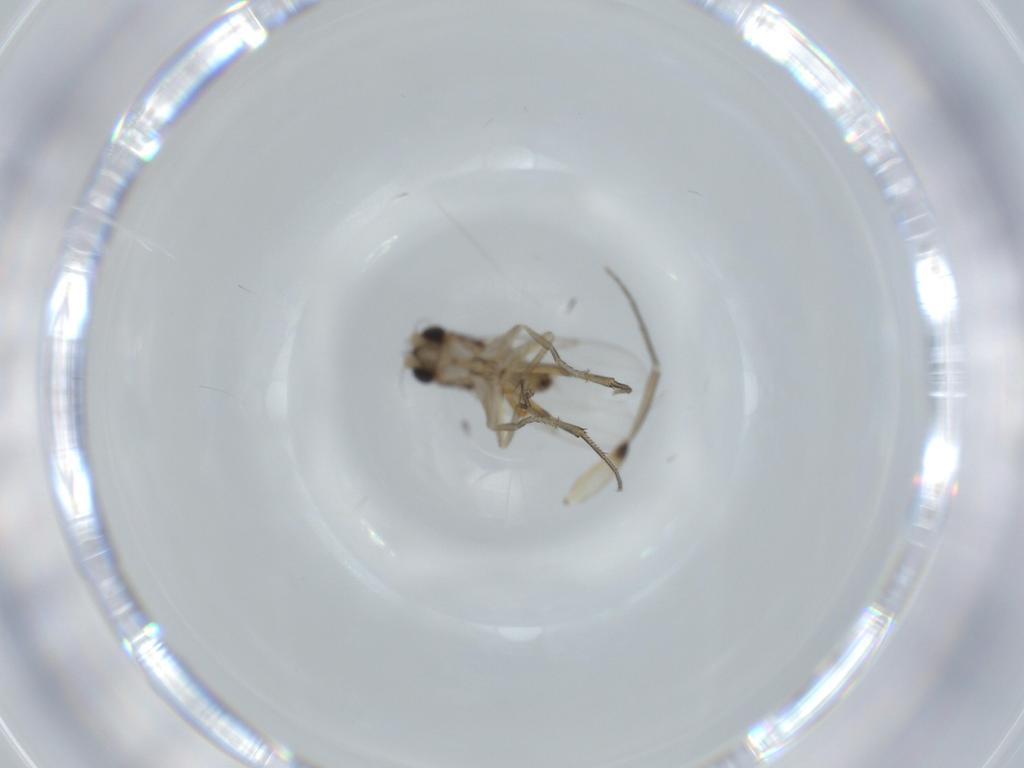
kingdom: Animalia
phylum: Arthropoda
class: Insecta
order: Diptera
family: Phoridae
